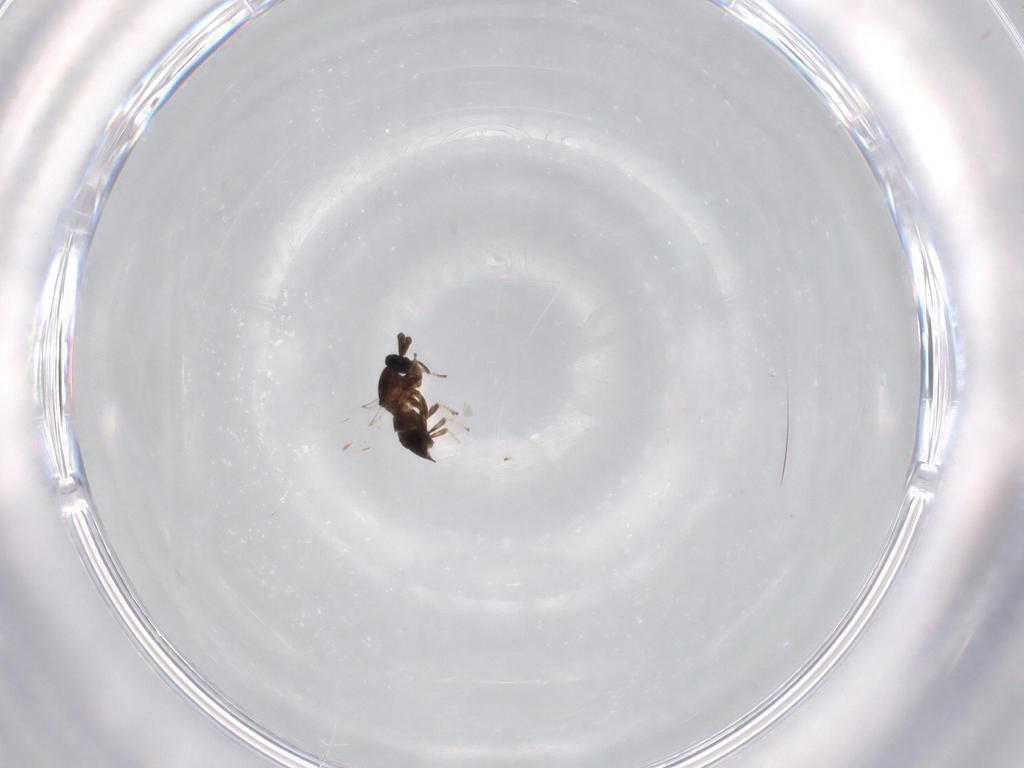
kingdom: Animalia
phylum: Arthropoda
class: Insecta
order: Diptera
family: Scatopsidae
